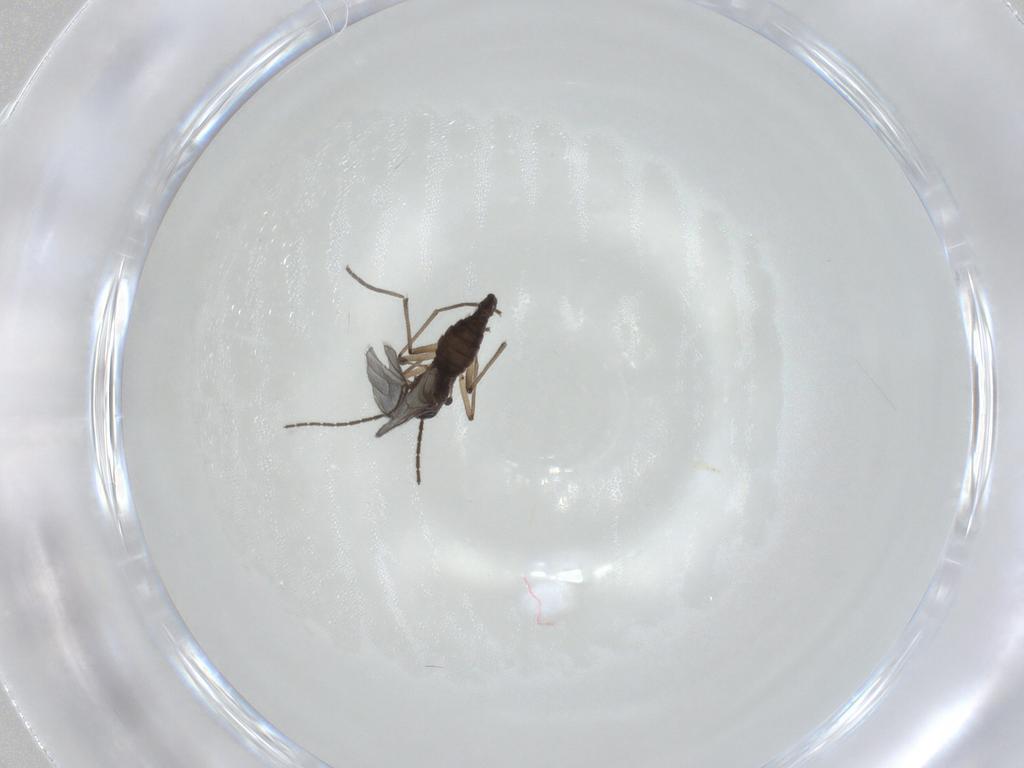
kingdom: Animalia
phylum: Arthropoda
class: Insecta
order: Diptera
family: Sciaridae
